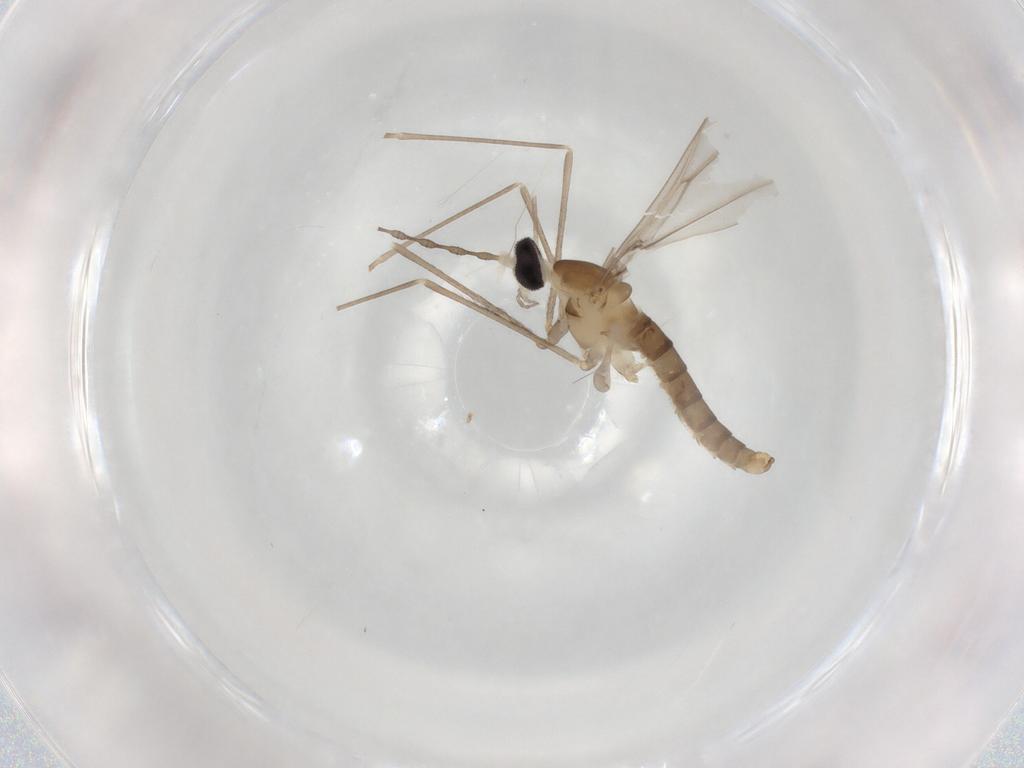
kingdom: Animalia
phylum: Arthropoda
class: Insecta
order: Diptera
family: Cecidomyiidae
